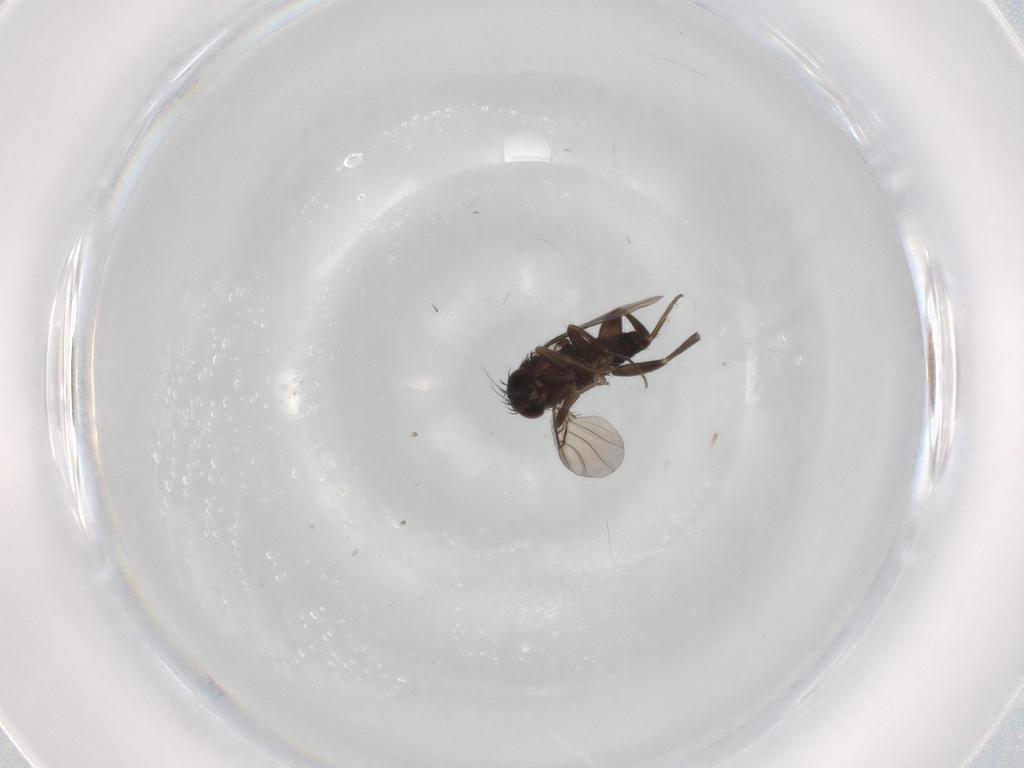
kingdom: Animalia
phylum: Arthropoda
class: Insecta
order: Diptera
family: Phoridae
